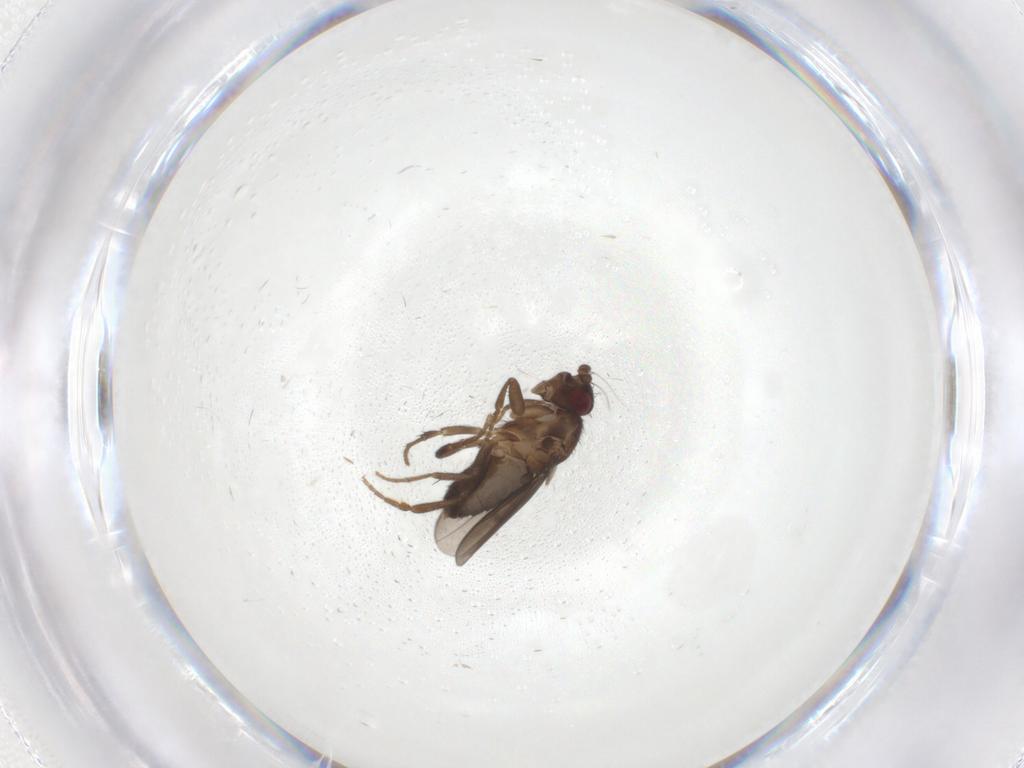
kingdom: Animalia
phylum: Arthropoda
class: Insecta
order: Diptera
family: Sphaeroceridae
